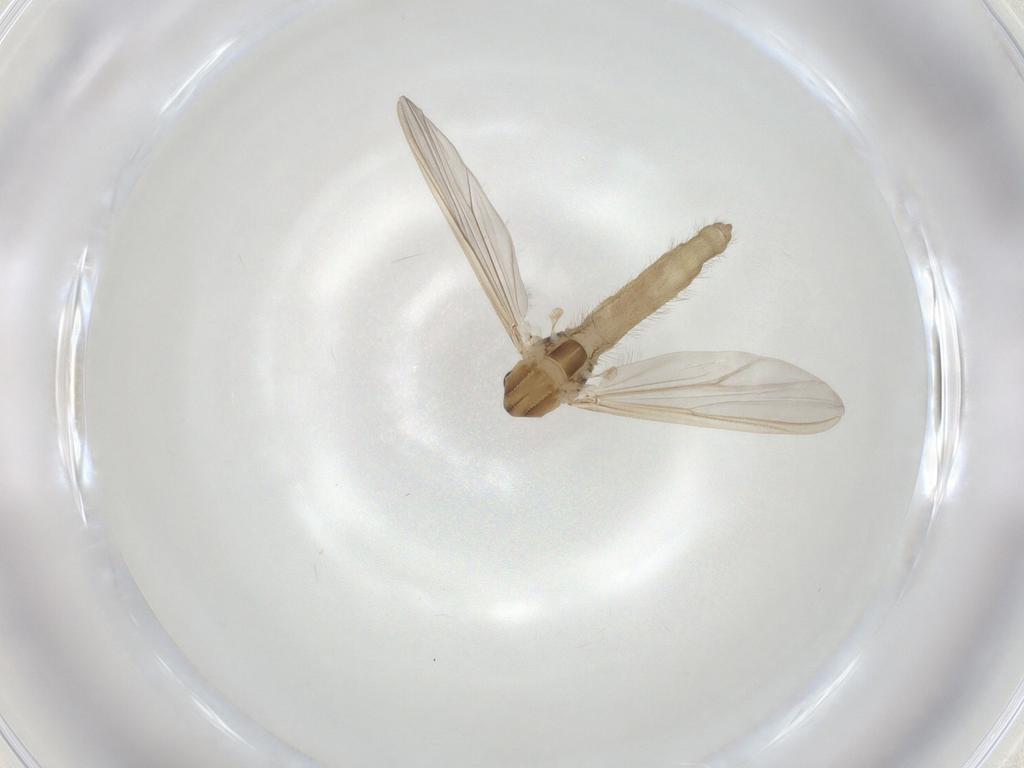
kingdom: Animalia
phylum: Arthropoda
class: Insecta
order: Diptera
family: Chironomidae
